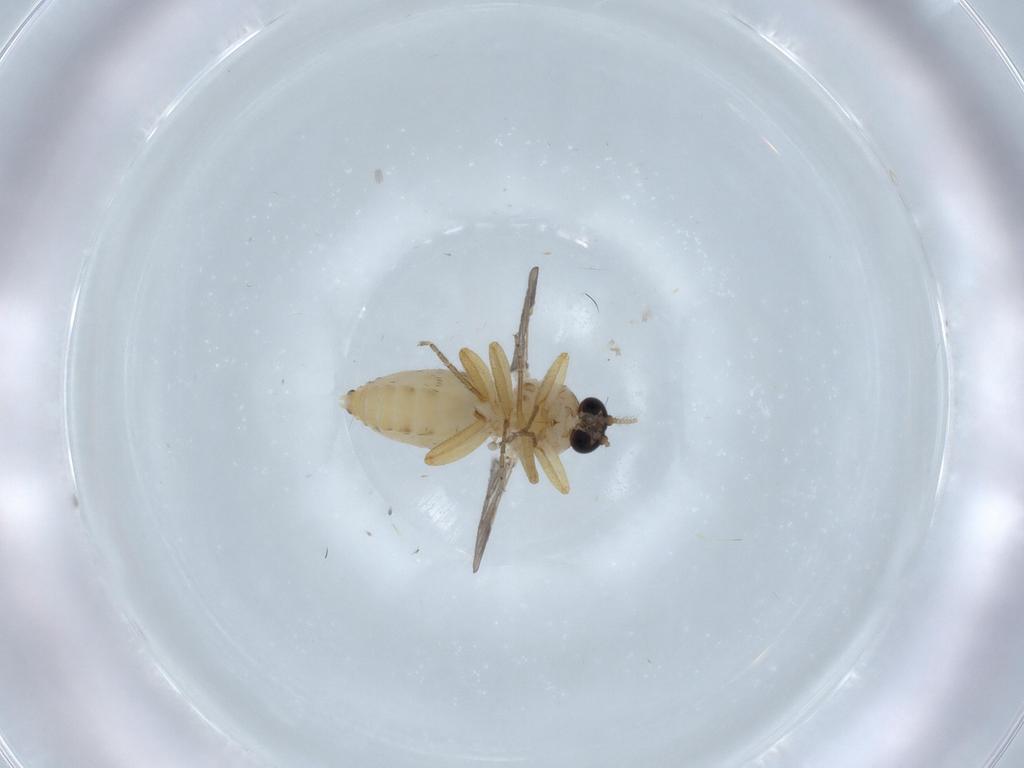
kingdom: Animalia
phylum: Arthropoda
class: Insecta
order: Diptera
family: Ceratopogonidae
